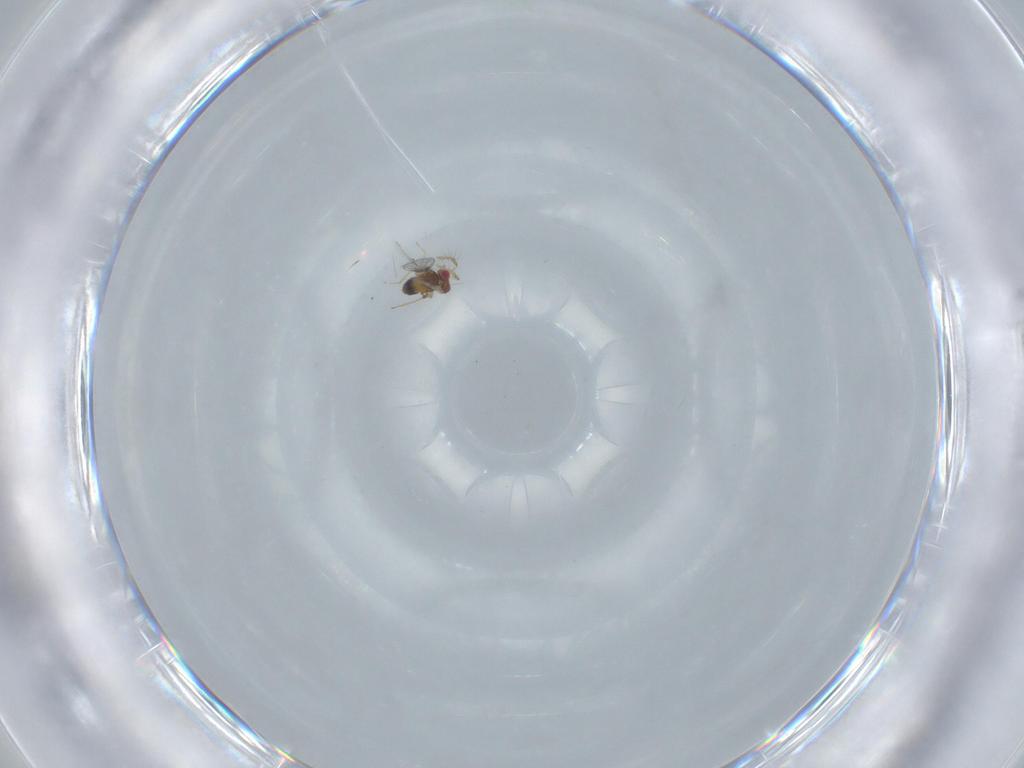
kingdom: Animalia
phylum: Arthropoda
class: Insecta
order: Hymenoptera
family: Trichogrammatidae
